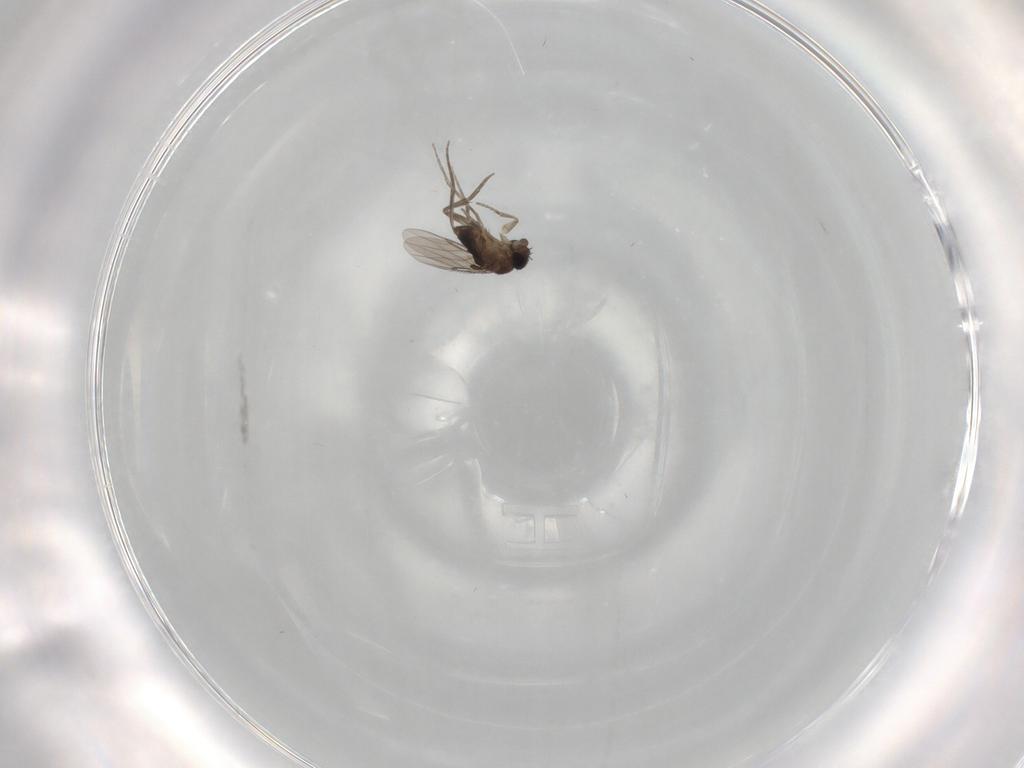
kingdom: Animalia
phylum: Arthropoda
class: Insecta
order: Diptera
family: Phoridae
